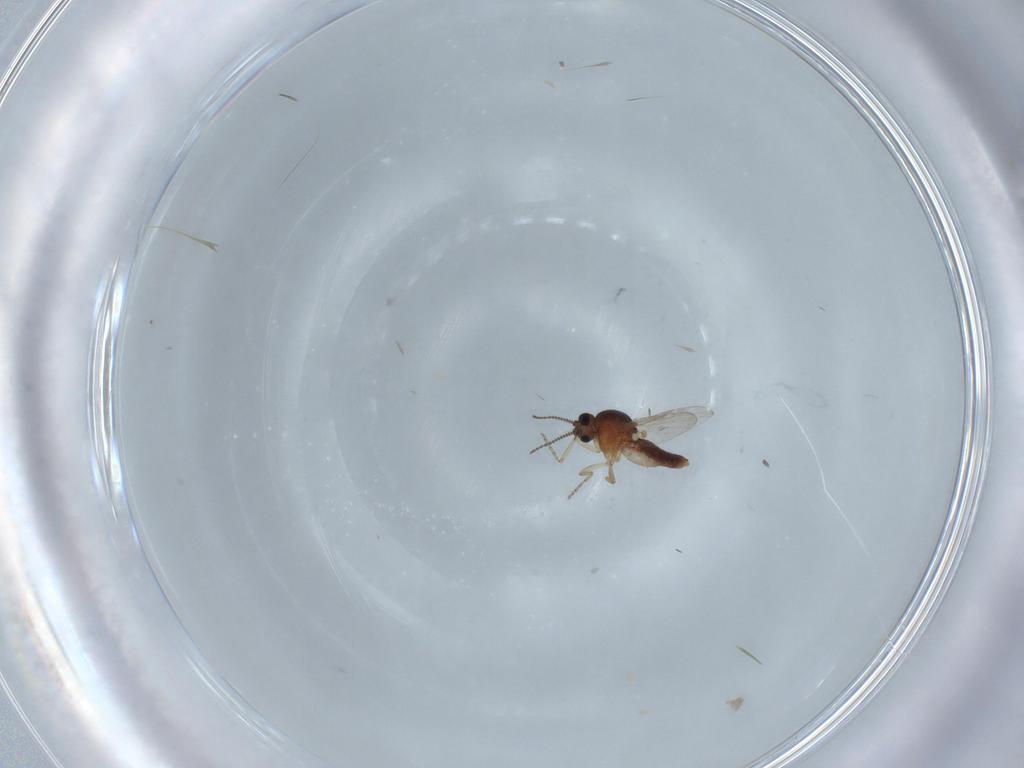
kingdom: Animalia
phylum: Arthropoda
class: Insecta
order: Diptera
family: Ceratopogonidae
